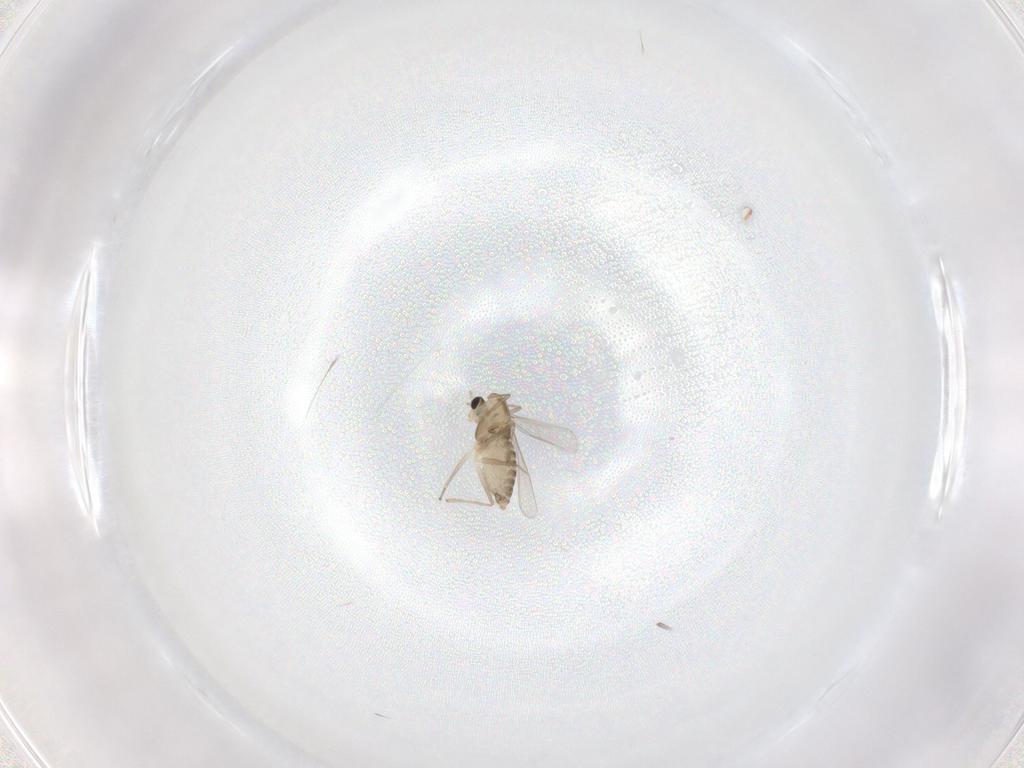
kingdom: Animalia
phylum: Arthropoda
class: Insecta
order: Diptera
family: Chironomidae
